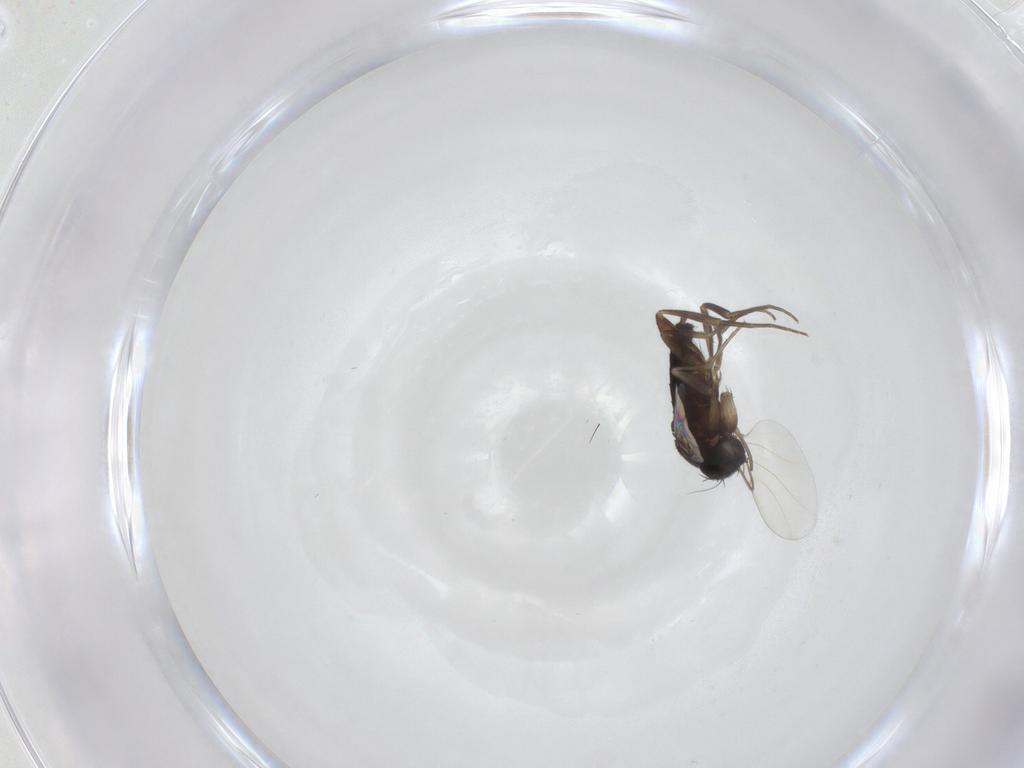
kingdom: Animalia
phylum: Arthropoda
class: Insecta
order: Diptera
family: Phoridae
